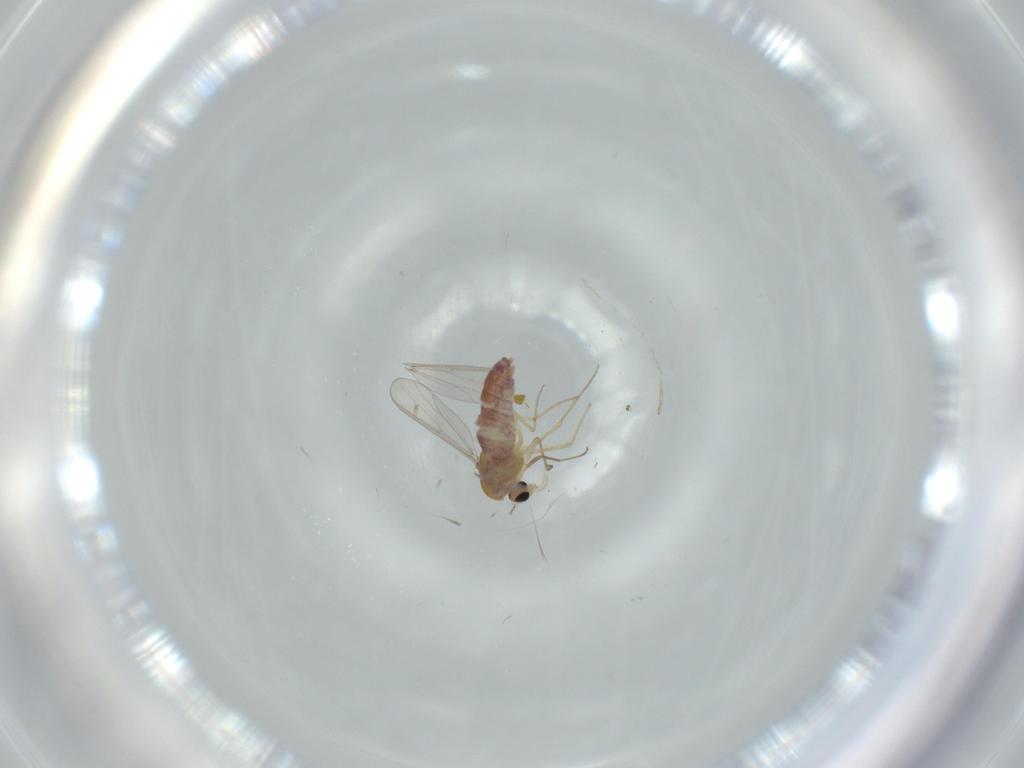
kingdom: Animalia
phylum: Arthropoda
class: Insecta
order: Diptera
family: Chironomidae
